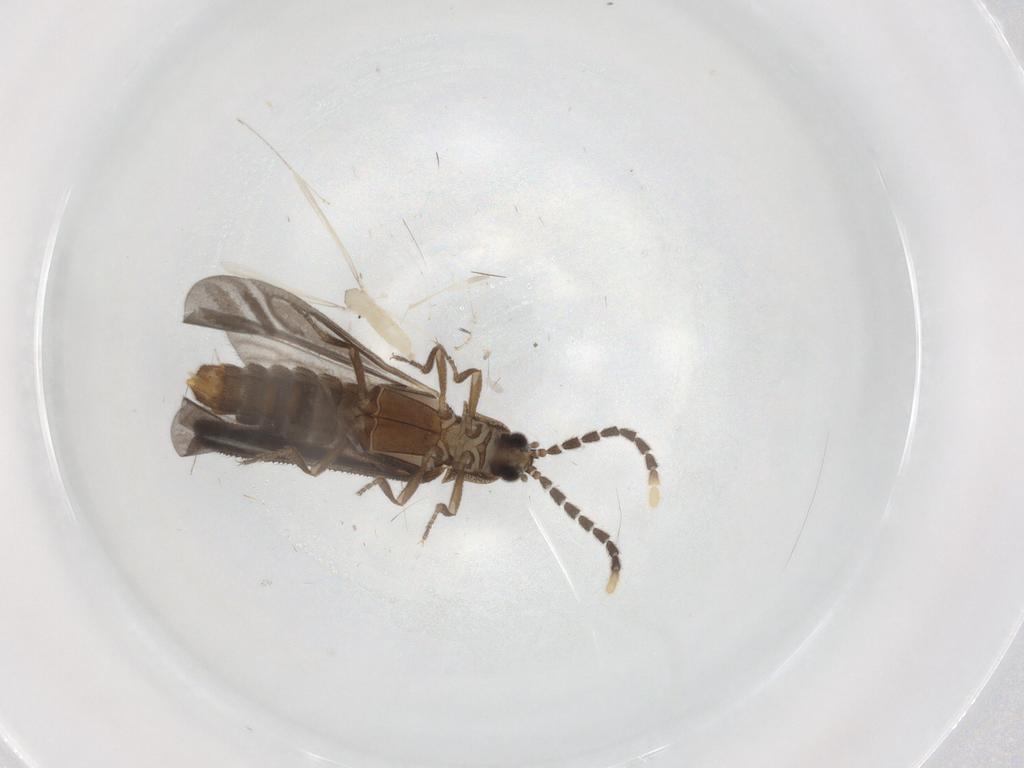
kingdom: Animalia
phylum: Arthropoda
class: Insecta
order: Coleoptera
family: Lycidae
